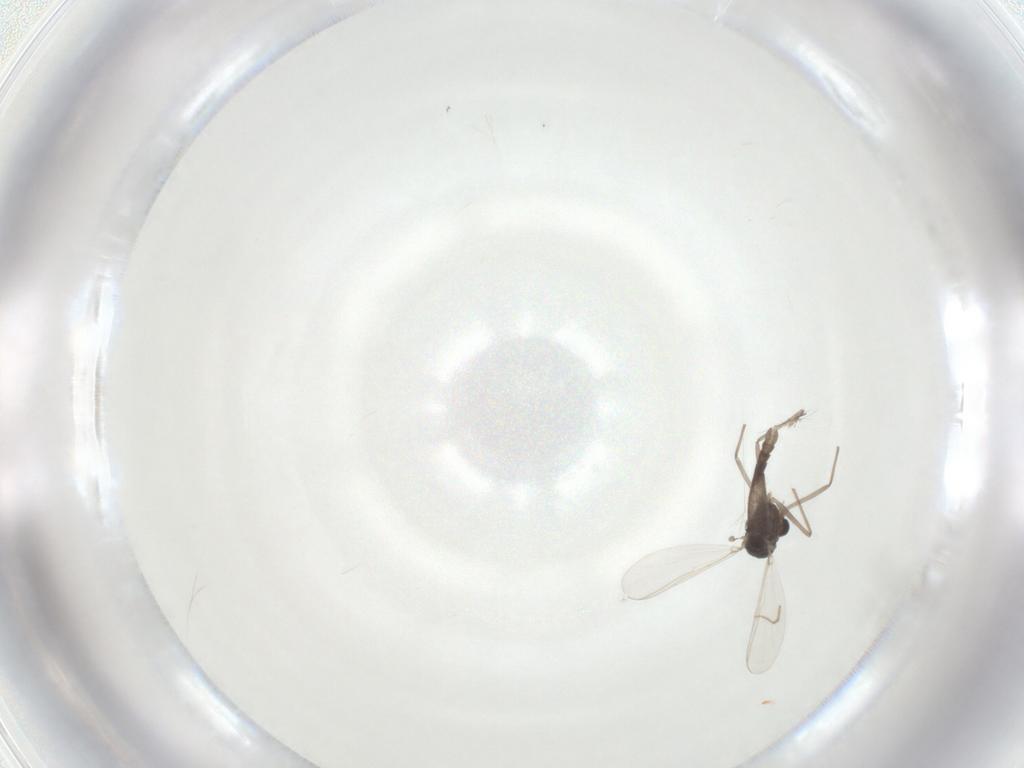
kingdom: Animalia
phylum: Arthropoda
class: Insecta
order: Diptera
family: Chironomidae
